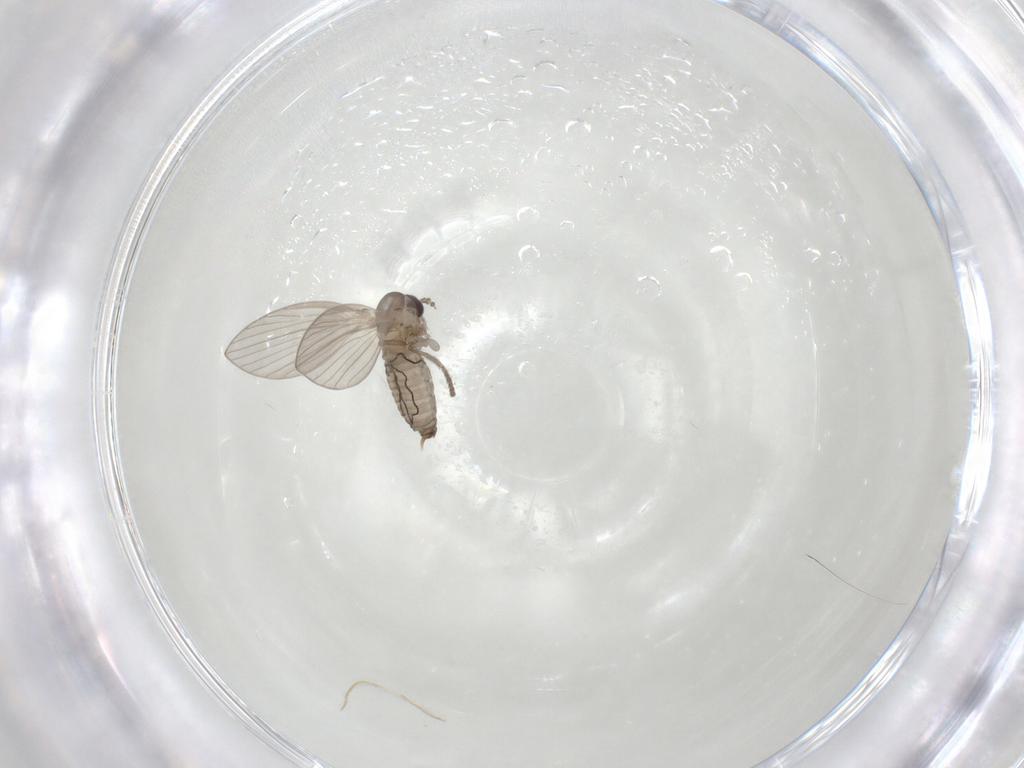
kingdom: Animalia
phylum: Arthropoda
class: Insecta
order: Diptera
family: Psychodidae
